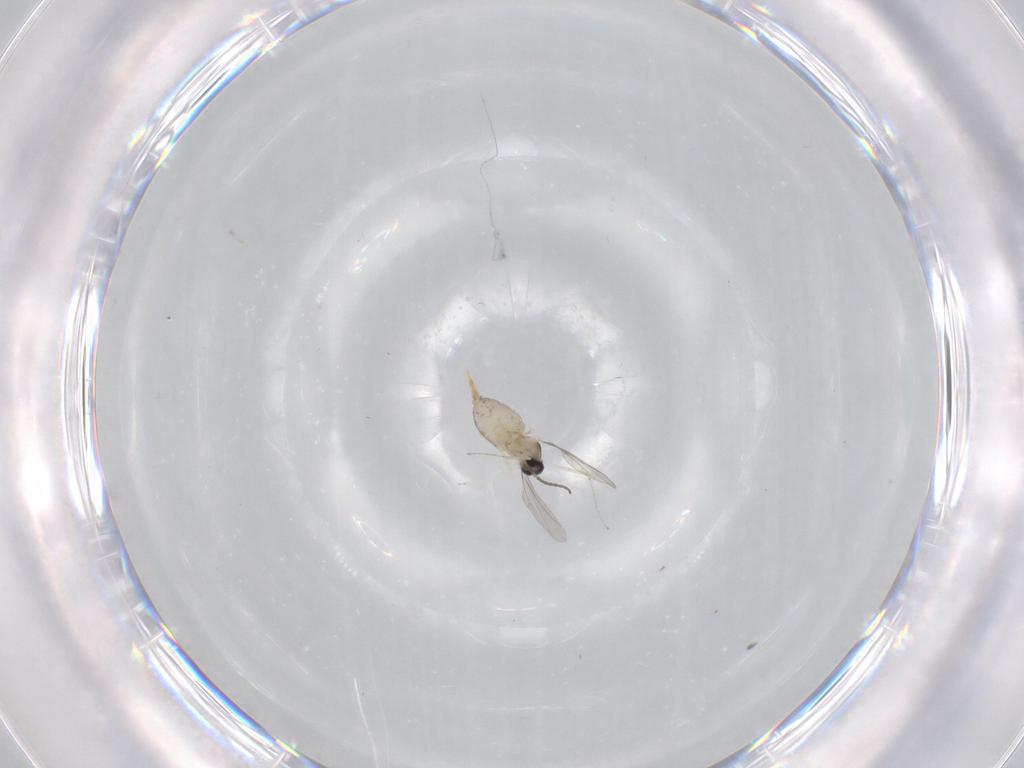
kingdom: Animalia
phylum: Arthropoda
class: Insecta
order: Diptera
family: Cecidomyiidae
